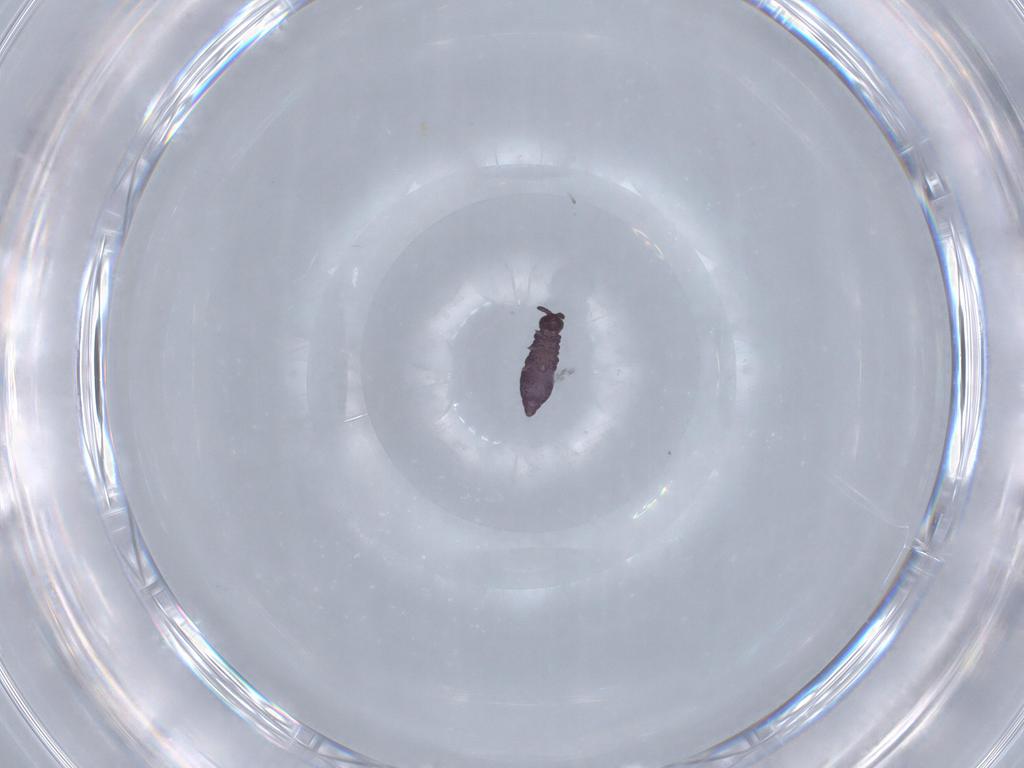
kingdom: Animalia
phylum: Arthropoda
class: Collembola
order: Poduromorpha
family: Hypogastruridae
